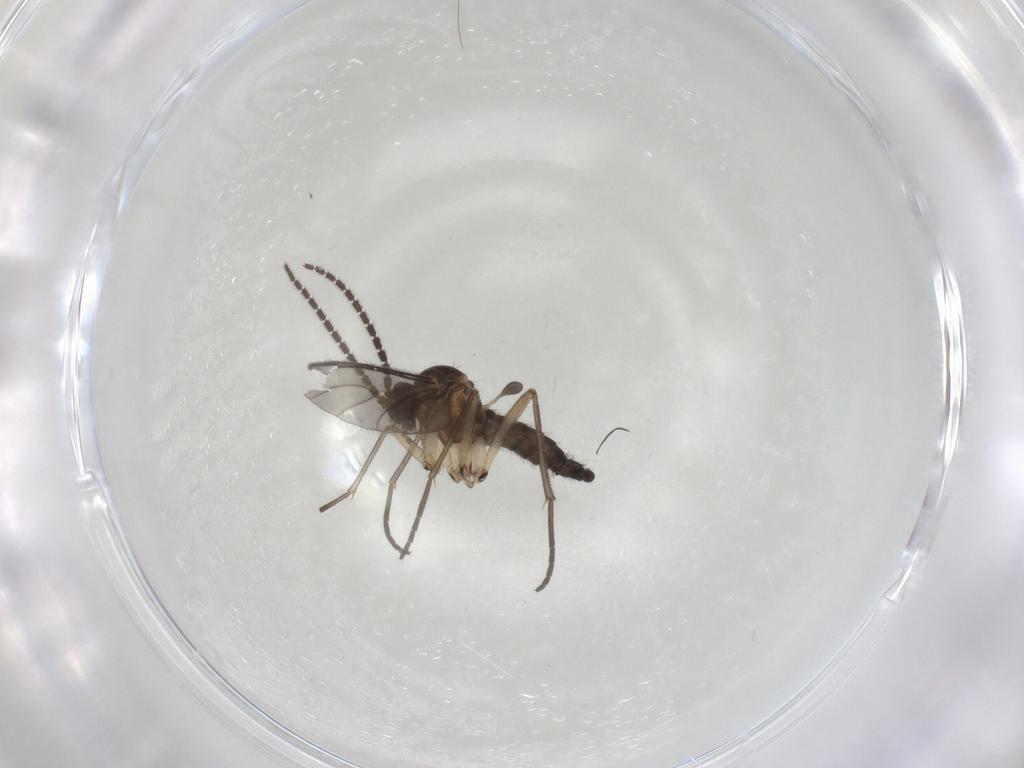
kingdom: Animalia
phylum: Arthropoda
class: Insecta
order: Diptera
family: Sciaridae
